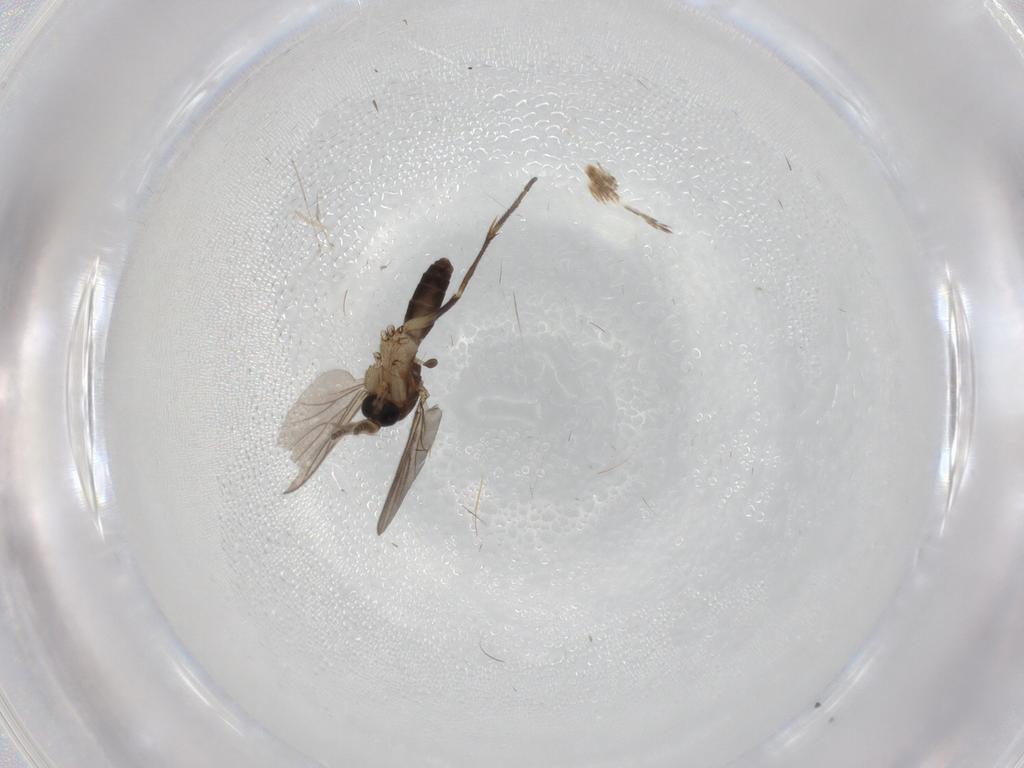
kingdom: Animalia
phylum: Arthropoda
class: Insecta
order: Diptera
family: Mycetophilidae
